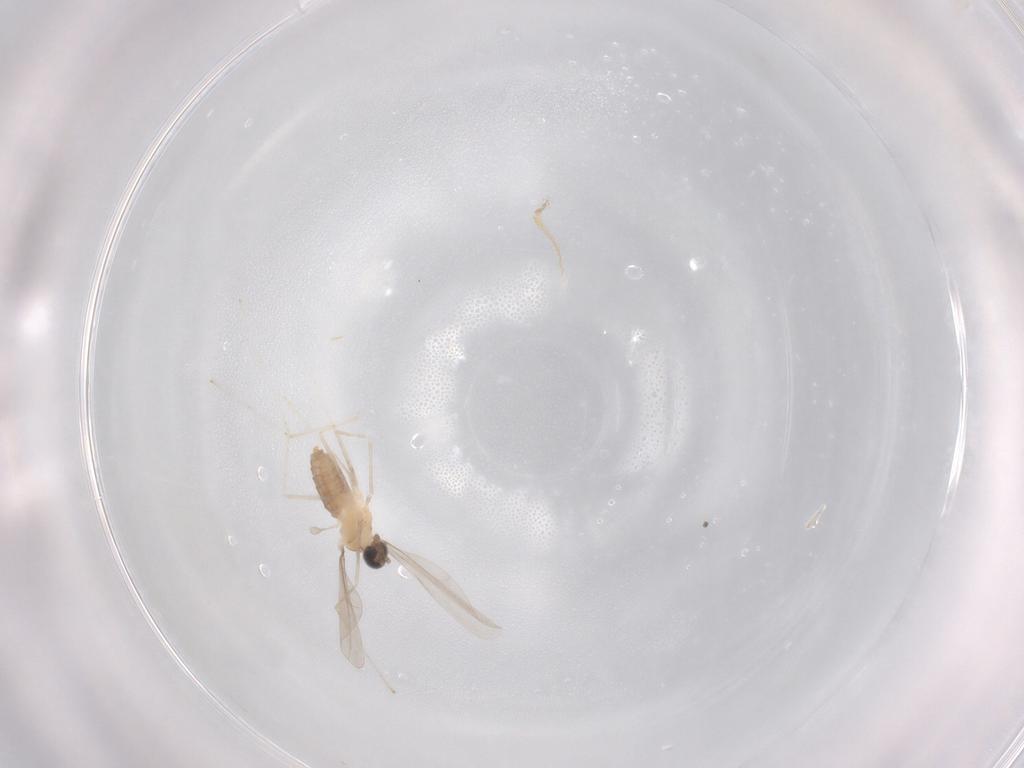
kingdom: Animalia
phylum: Arthropoda
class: Insecta
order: Diptera
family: Cecidomyiidae
